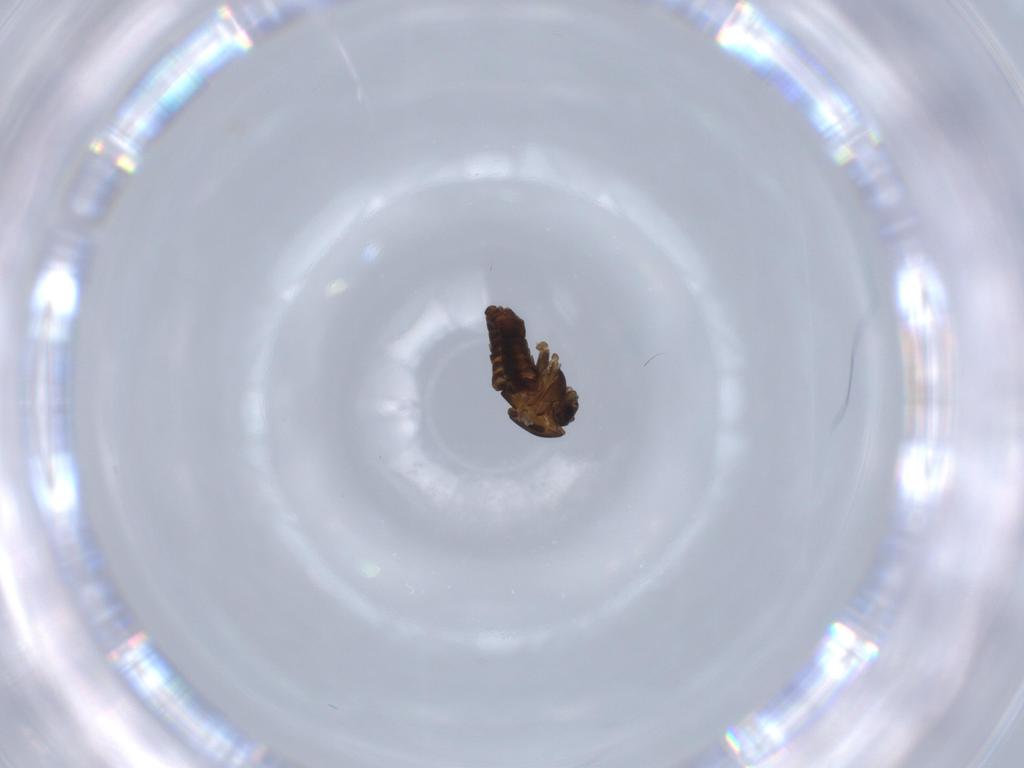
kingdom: Animalia
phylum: Arthropoda
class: Insecta
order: Diptera
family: Chironomidae
